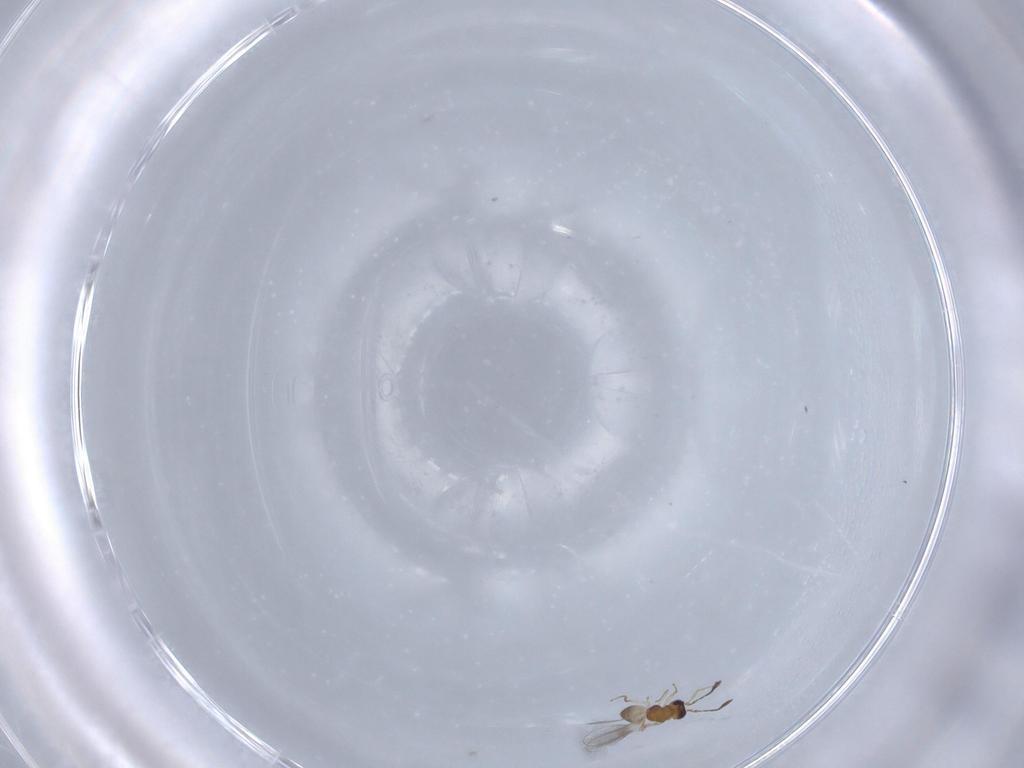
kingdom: Animalia
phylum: Arthropoda
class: Insecta
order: Hymenoptera
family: Mymaridae
